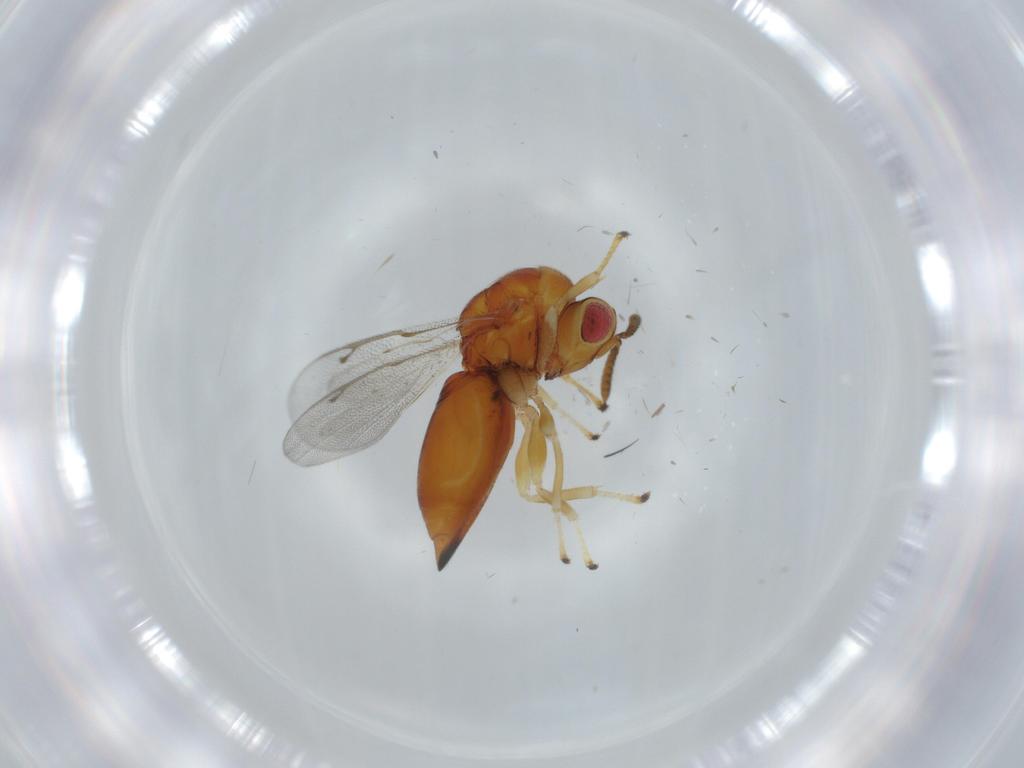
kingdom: Animalia
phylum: Arthropoda
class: Insecta
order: Hymenoptera
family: Eurytomidae
